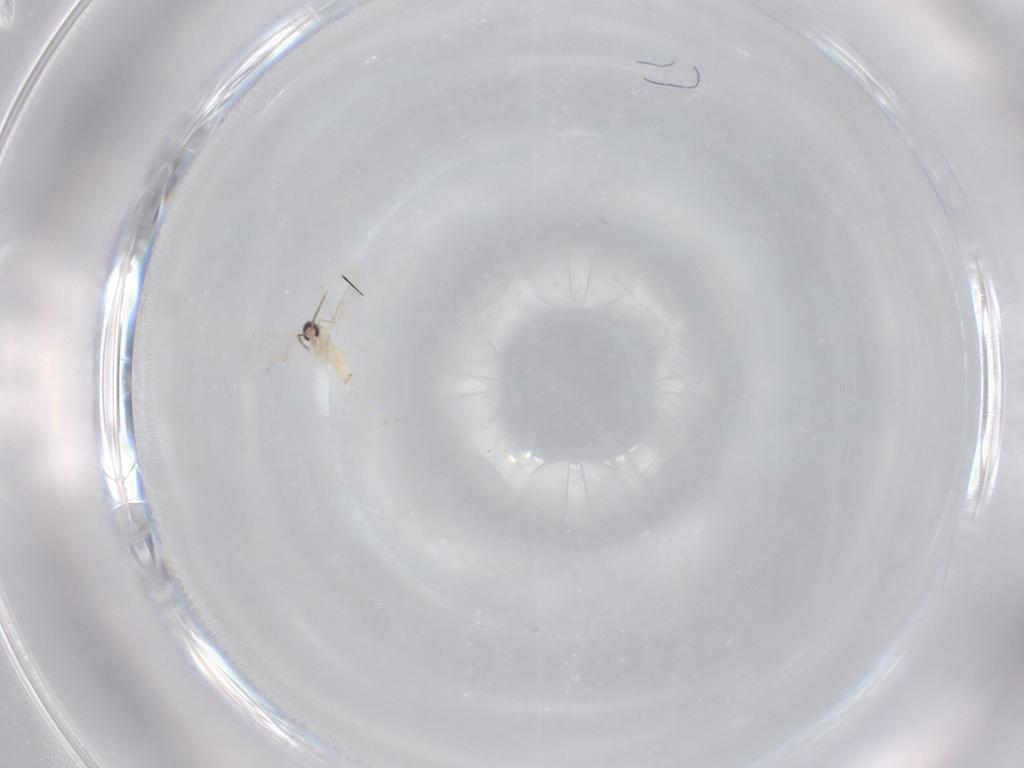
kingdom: Animalia
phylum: Arthropoda
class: Insecta
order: Diptera
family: Cecidomyiidae
